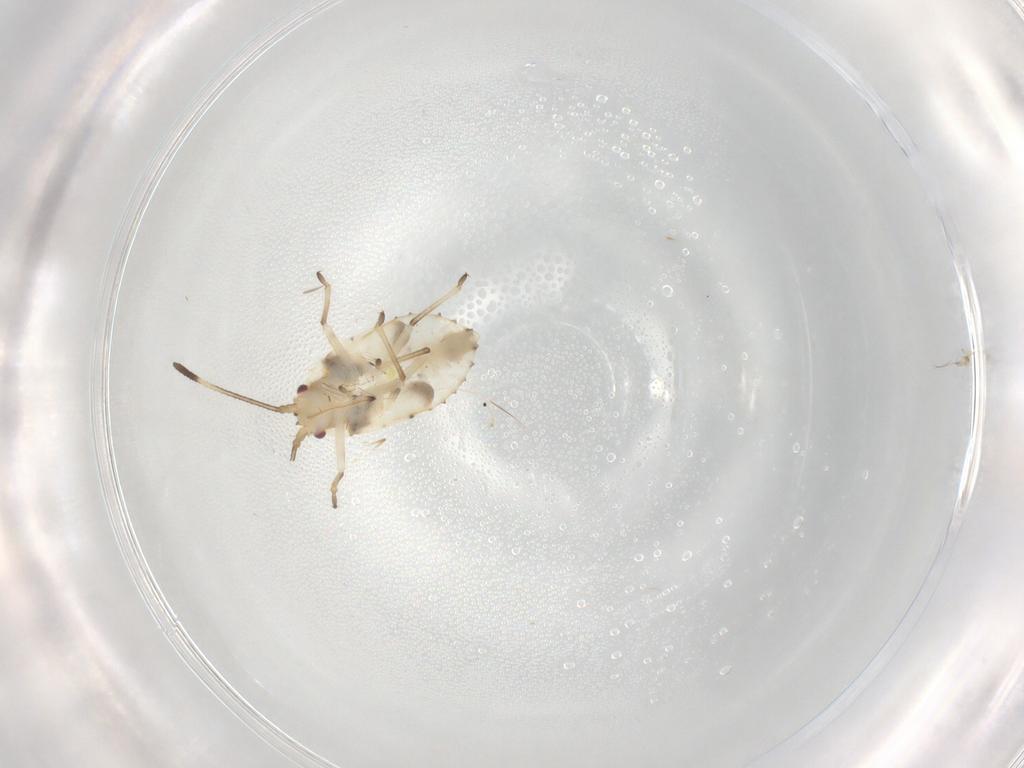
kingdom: Animalia
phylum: Arthropoda
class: Insecta
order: Hemiptera
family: Tingidae
